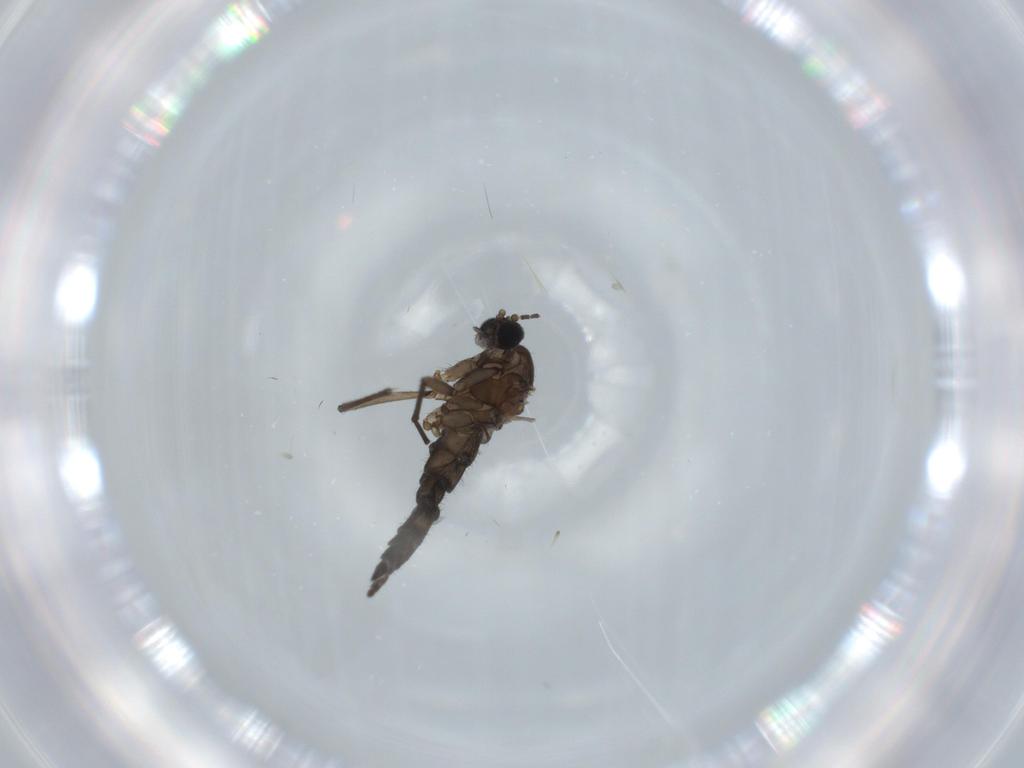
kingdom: Animalia
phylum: Arthropoda
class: Insecta
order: Diptera
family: Sciaridae
